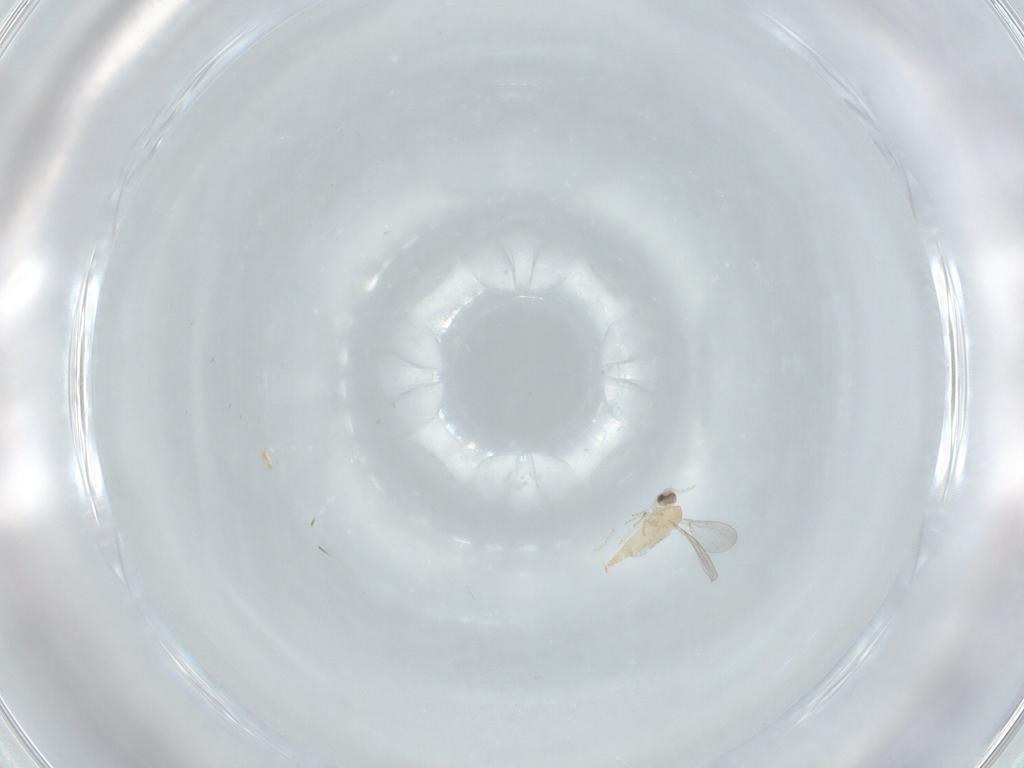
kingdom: Animalia
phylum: Arthropoda
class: Insecta
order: Diptera
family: Cecidomyiidae
